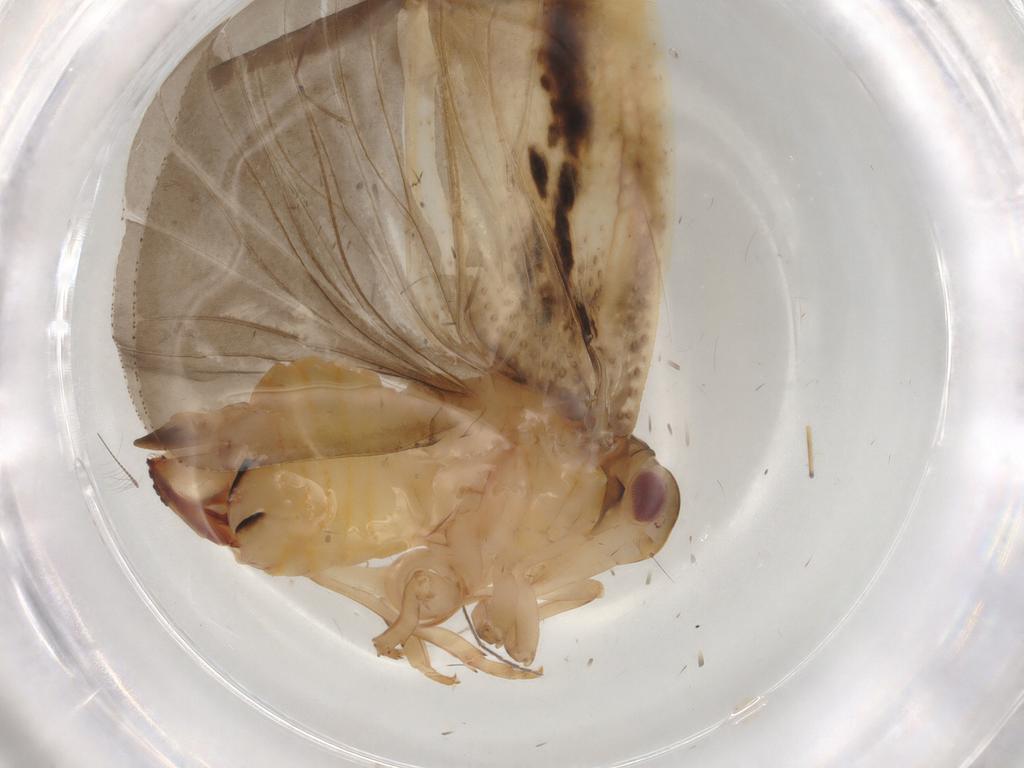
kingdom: Animalia
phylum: Arthropoda
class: Insecta
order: Hemiptera
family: Flatidae
